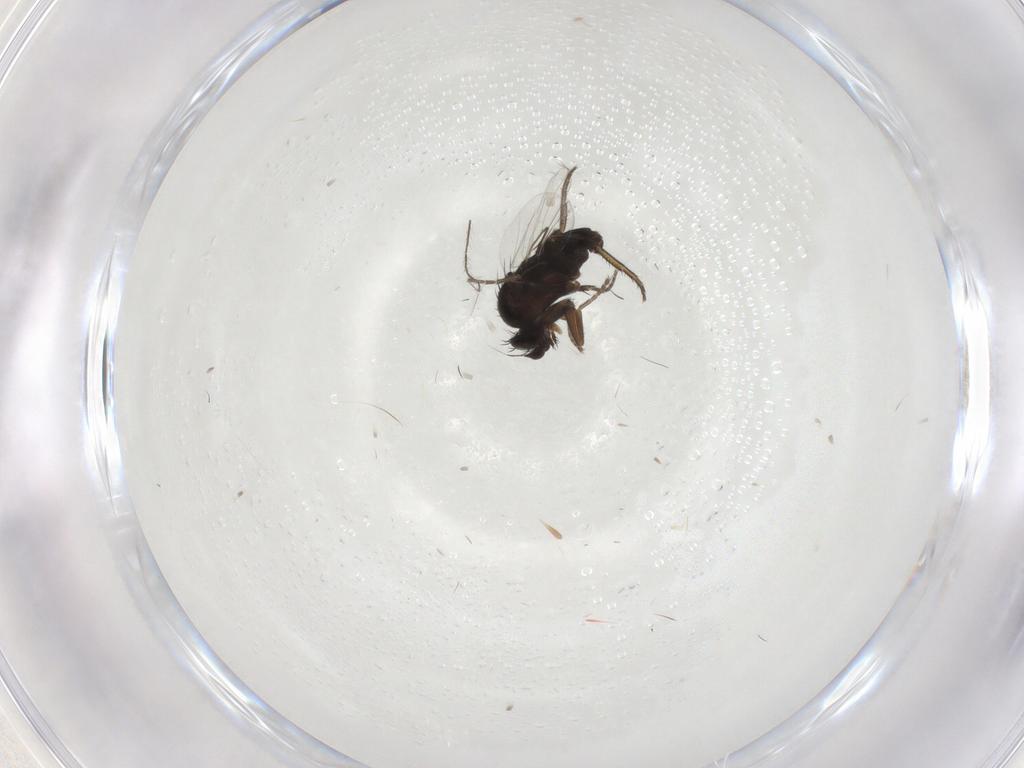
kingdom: Animalia
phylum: Arthropoda
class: Insecta
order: Diptera
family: Phoridae
